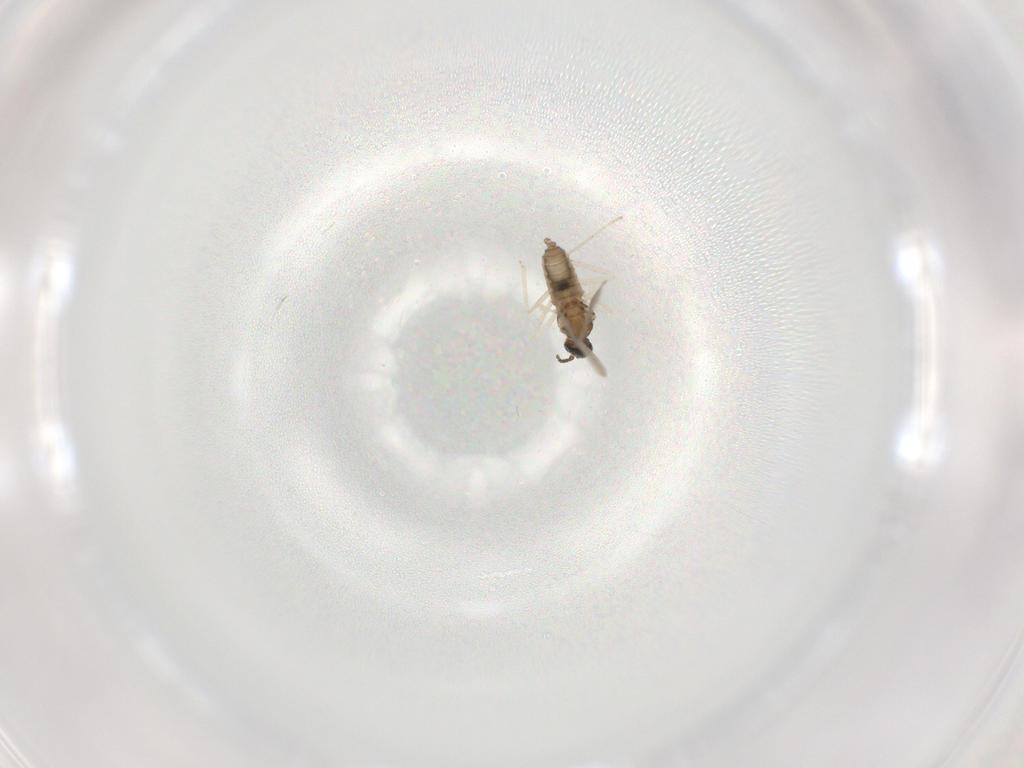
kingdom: Animalia
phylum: Arthropoda
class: Insecta
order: Diptera
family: Cecidomyiidae
